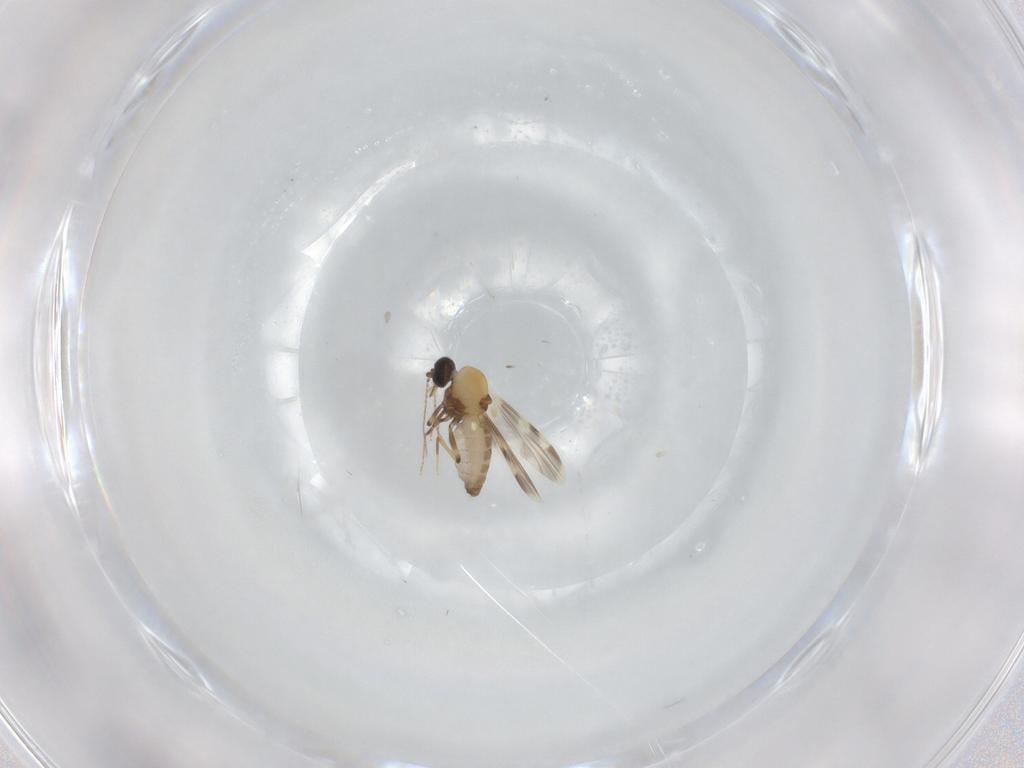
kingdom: Animalia
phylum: Arthropoda
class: Insecta
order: Diptera
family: Ceratopogonidae
